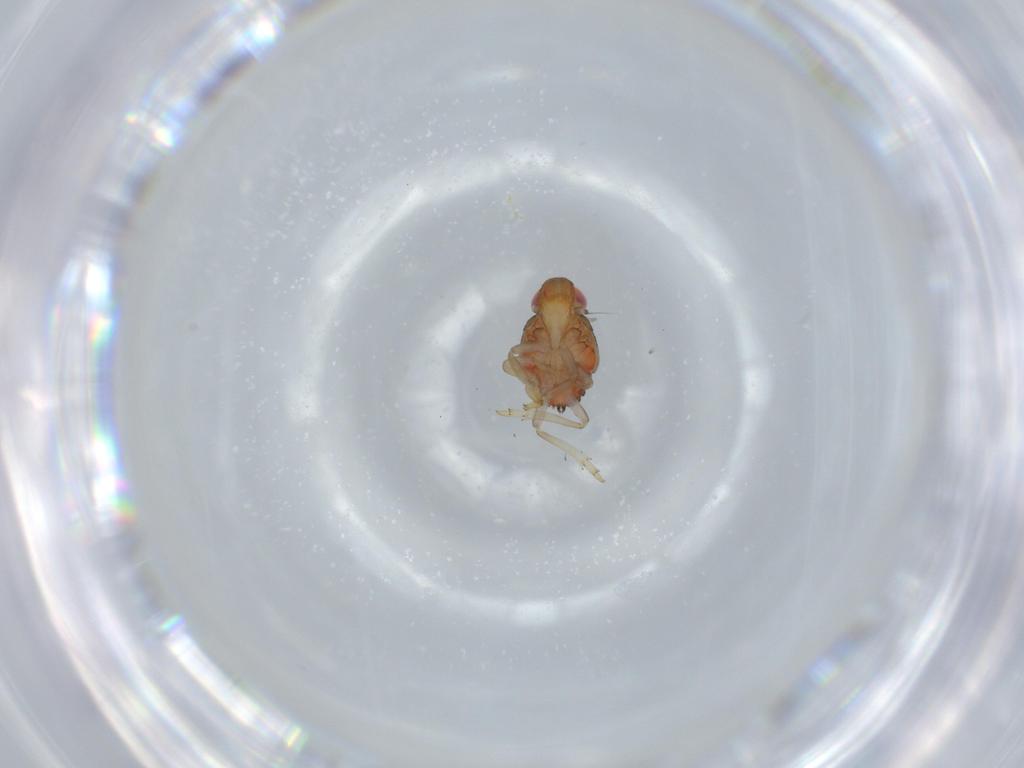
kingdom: Animalia
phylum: Arthropoda
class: Insecta
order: Hemiptera
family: Issidae
